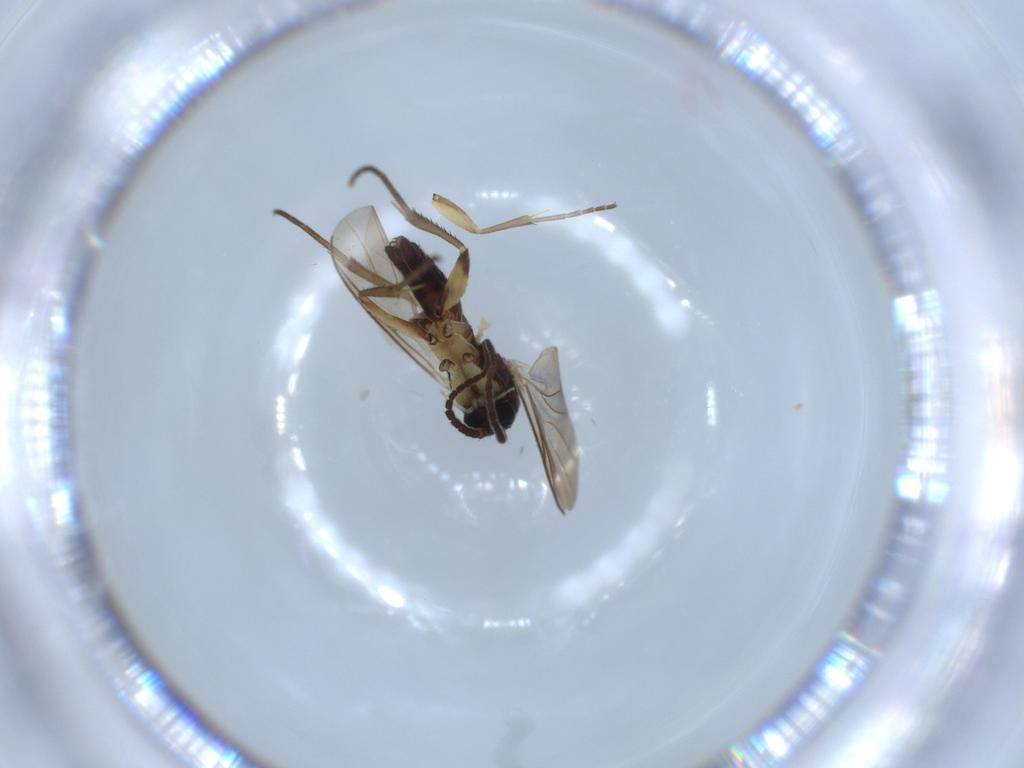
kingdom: Animalia
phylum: Arthropoda
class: Insecta
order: Diptera
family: Mycetophilidae
